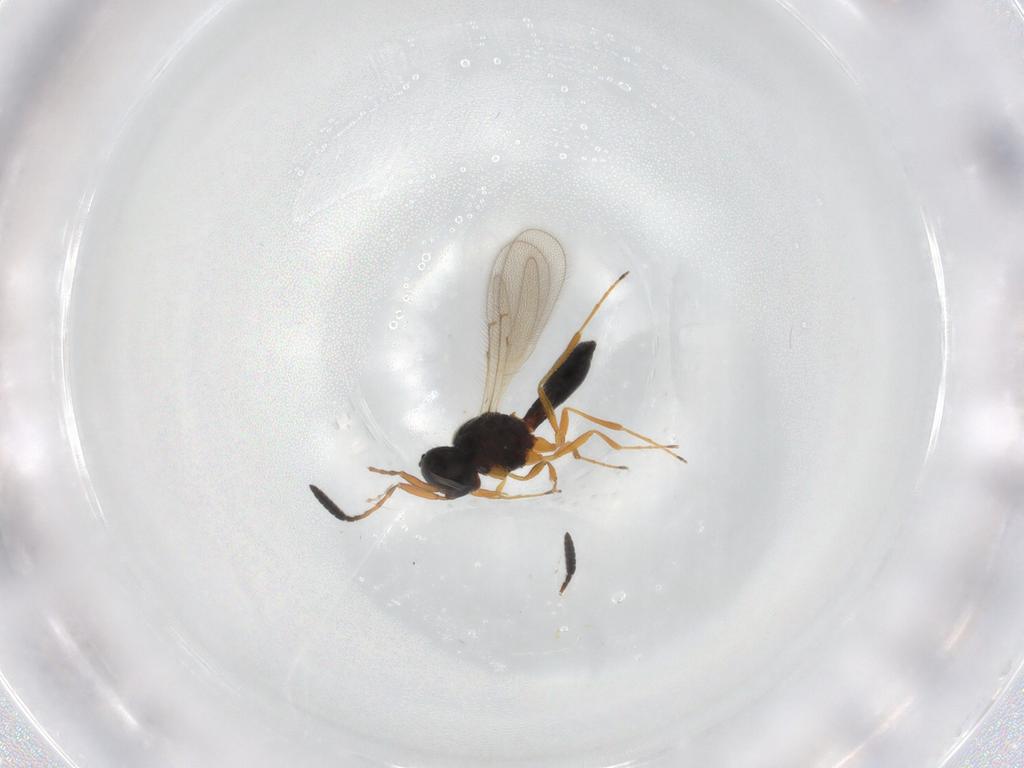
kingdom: Animalia
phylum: Arthropoda
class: Insecta
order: Hymenoptera
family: Scelionidae
